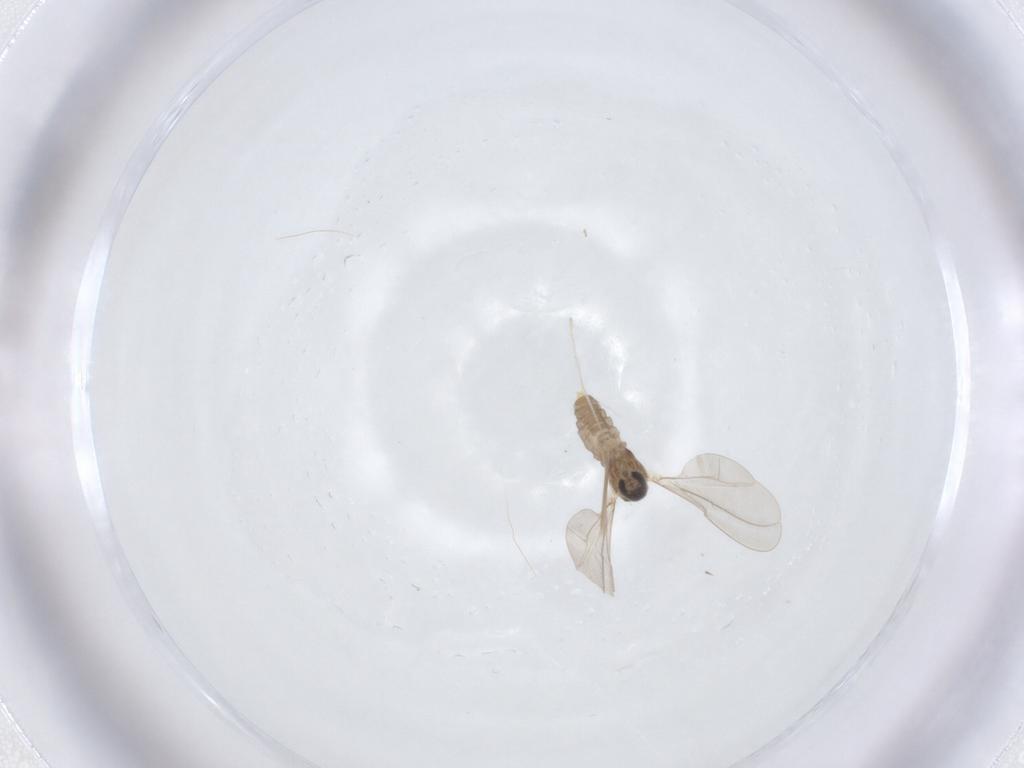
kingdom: Animalia
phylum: Arthropoda
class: Insecta
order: Diptera
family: Cecidomyiidae
